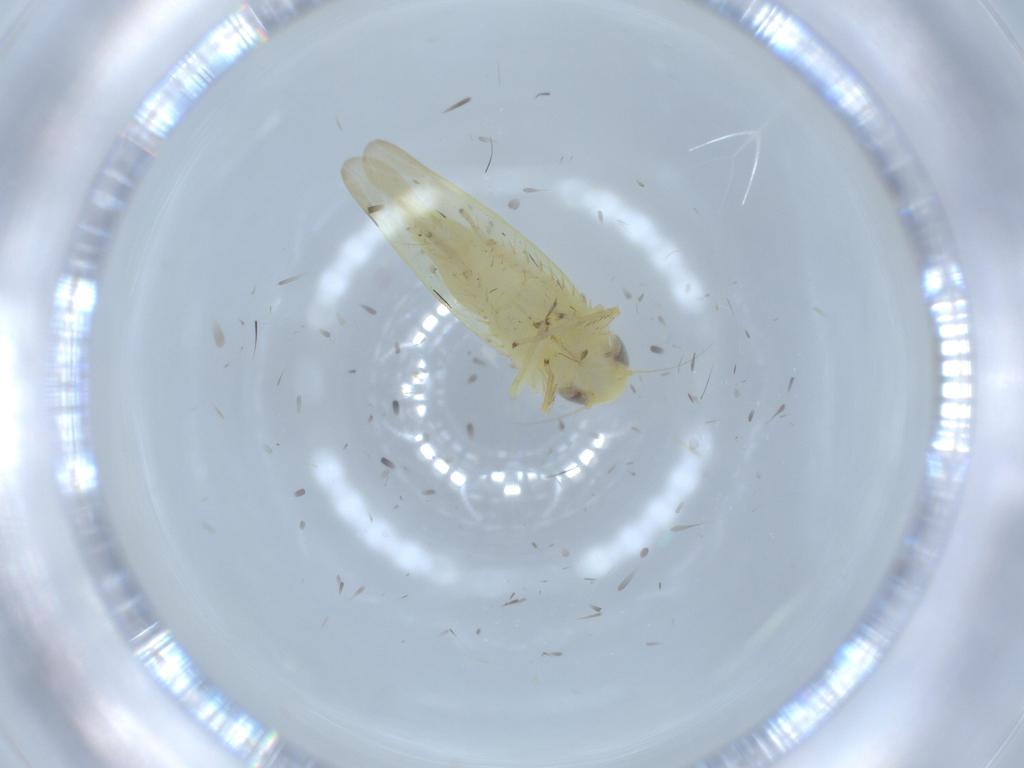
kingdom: Animalia
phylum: Arthropoda
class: Insecta
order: Hemiptera
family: Cicadellidae
